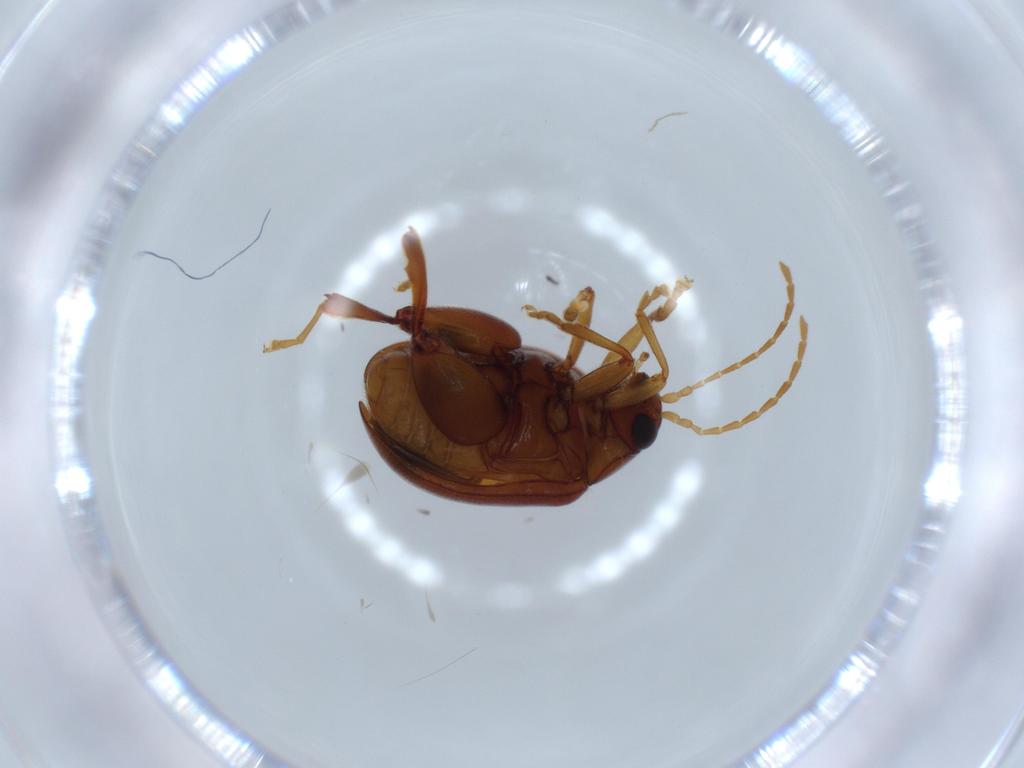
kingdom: Animalia
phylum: Arthropoda
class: Insecta
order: Coleoptera
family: Chrysomelidae
